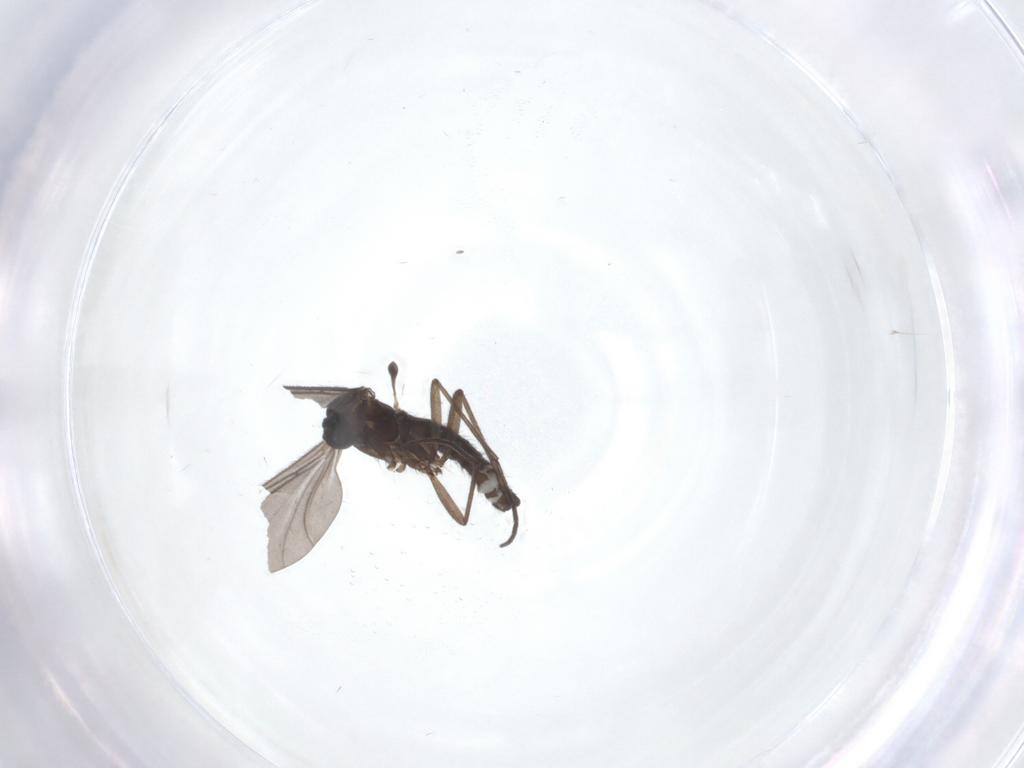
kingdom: Animalia
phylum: Arthropoda
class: Insecta
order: Diptera
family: Sciaridae
